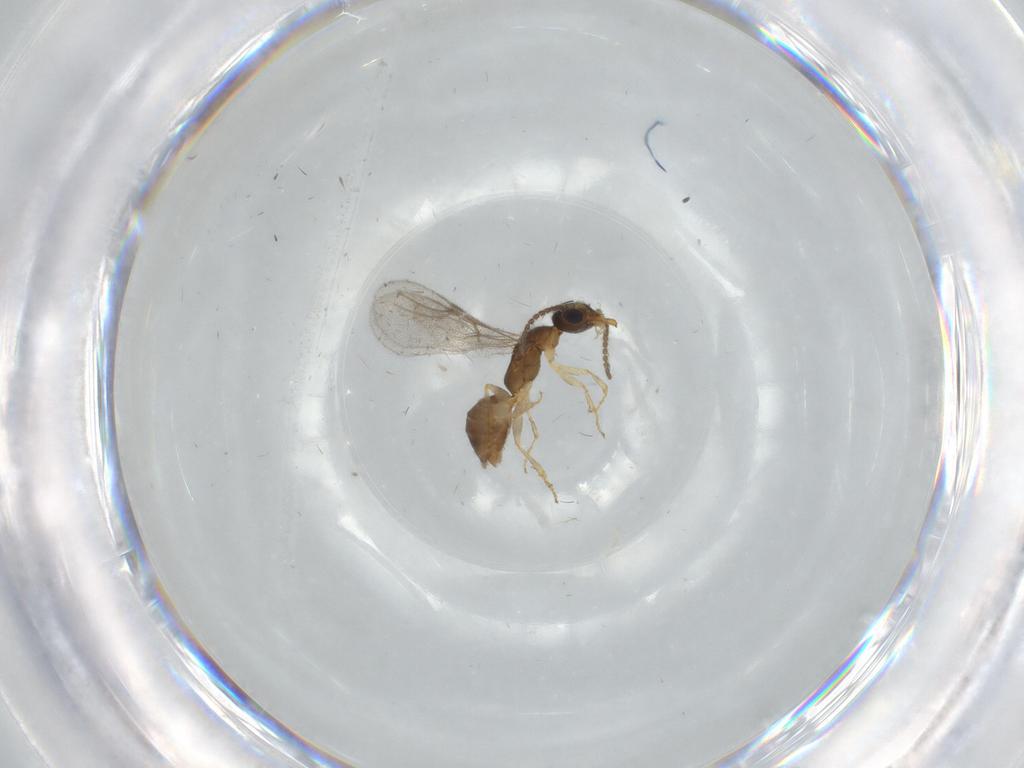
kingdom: Animalia
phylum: Arthropoda
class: Insecta
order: Hymenoptera
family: Bethylidae
